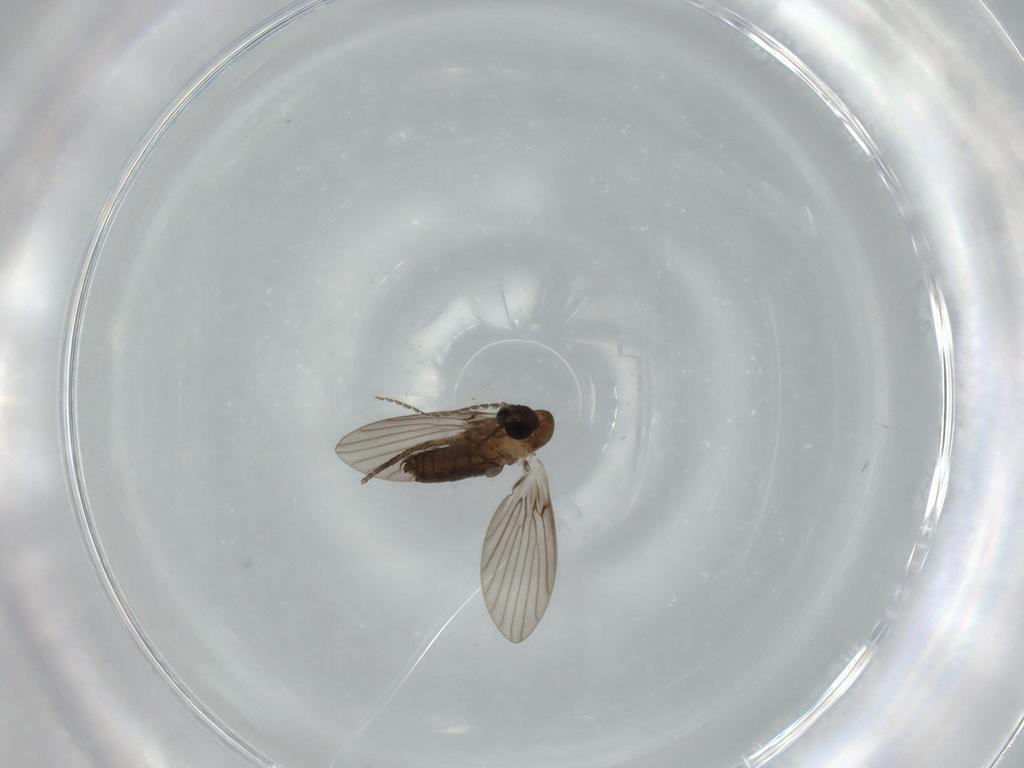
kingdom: Animalia
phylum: Arthropoda
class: Insecta
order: Diptera
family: Psychodidae
